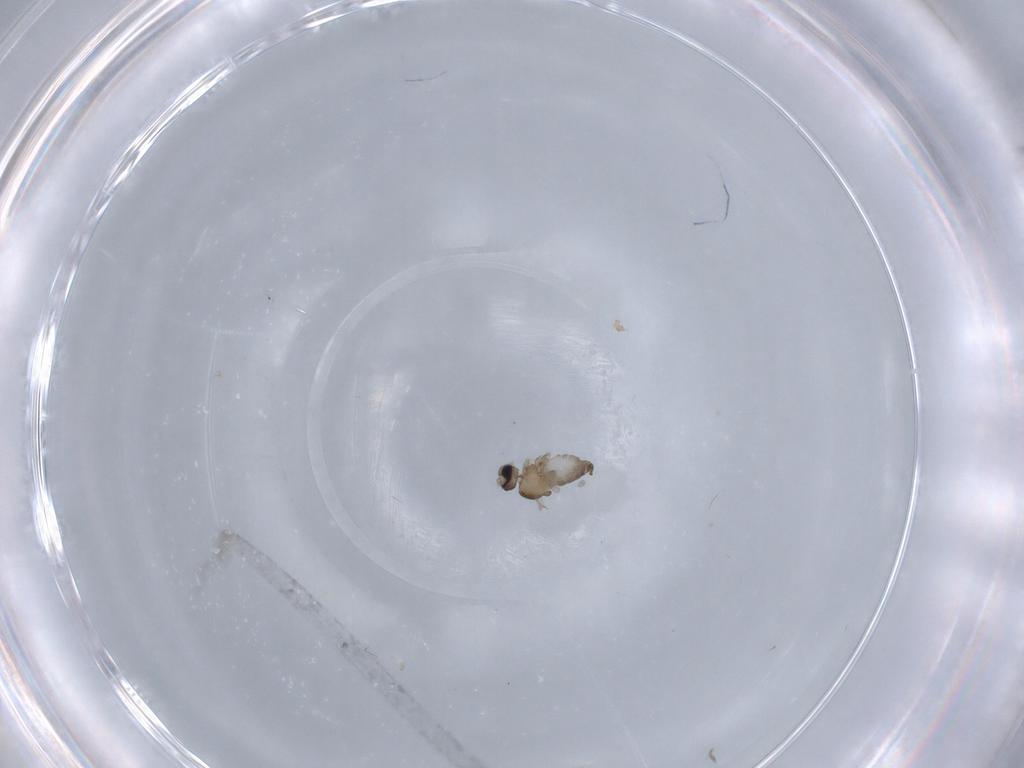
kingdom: Animalia
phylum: Arthropoda
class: Insecta
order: Diptera
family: Cecidomyiidae
